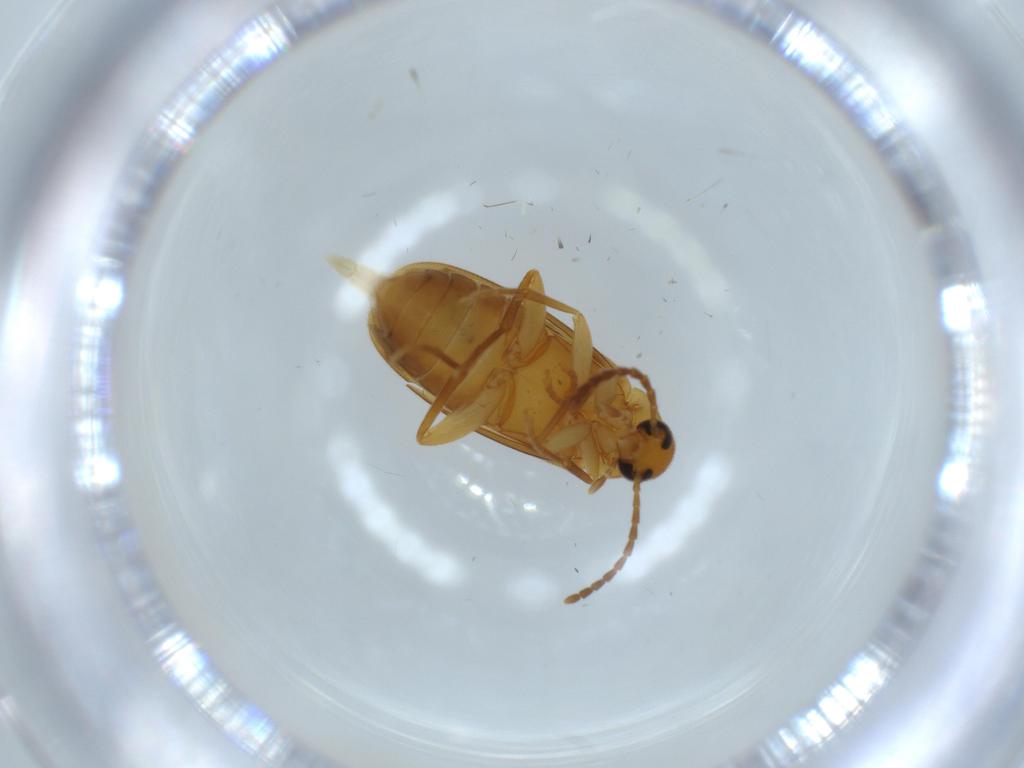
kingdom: Animalia
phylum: Arthropoda
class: Insecta
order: Coleoptera
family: Scraptiidae
